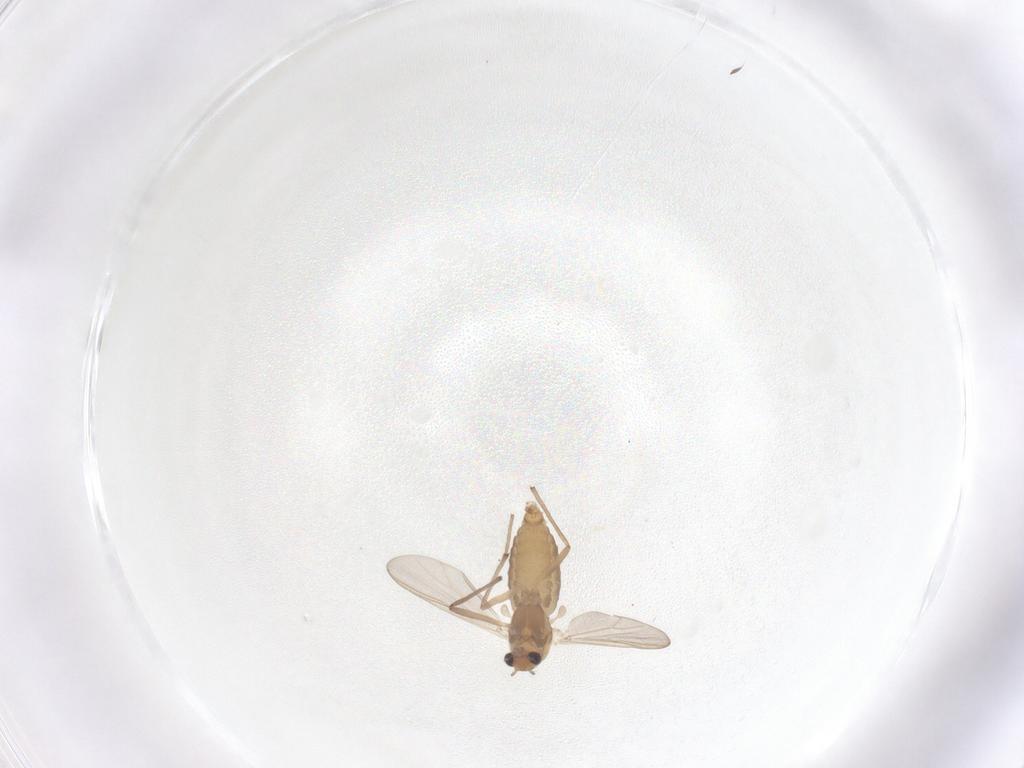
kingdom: Animalia
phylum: Arthropoda
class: Insecta
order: Diptera
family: Chironomidae
